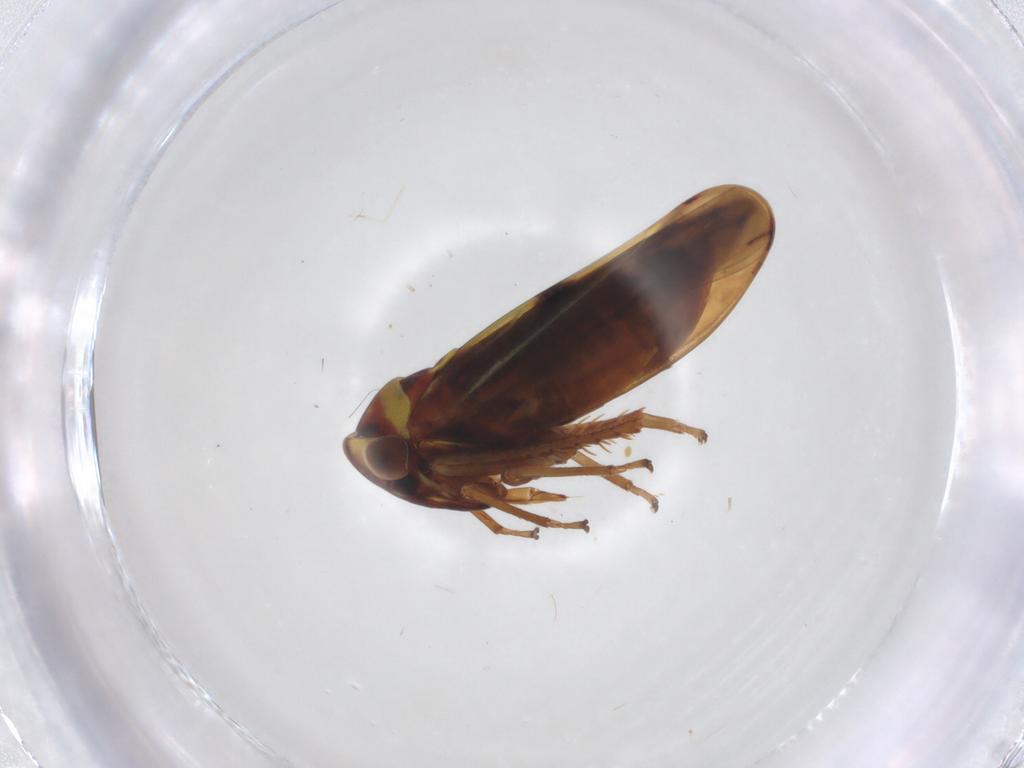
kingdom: Animalia
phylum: Arthropoda
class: Insecta
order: Hemiptera
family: Cicadellidae
